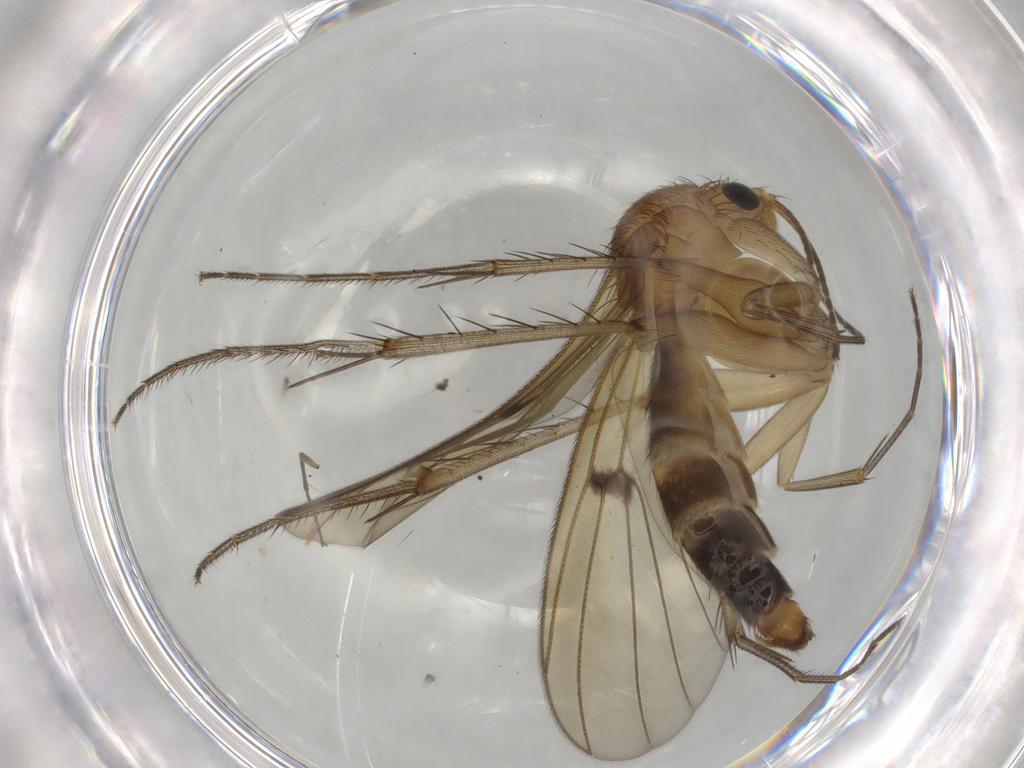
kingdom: Animalia
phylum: Arthropoda
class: Insecta
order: Diptera
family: Mycetophilidae
